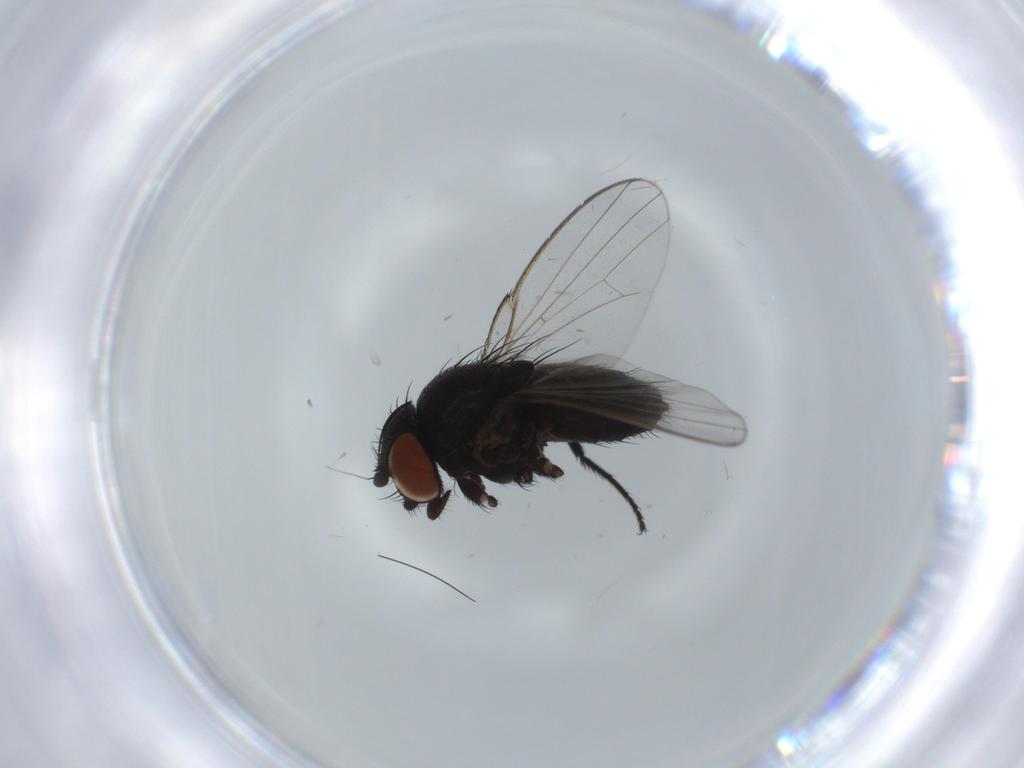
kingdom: Animalia
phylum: Arthropoda
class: Insecta
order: Diptera
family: Milichiidae
